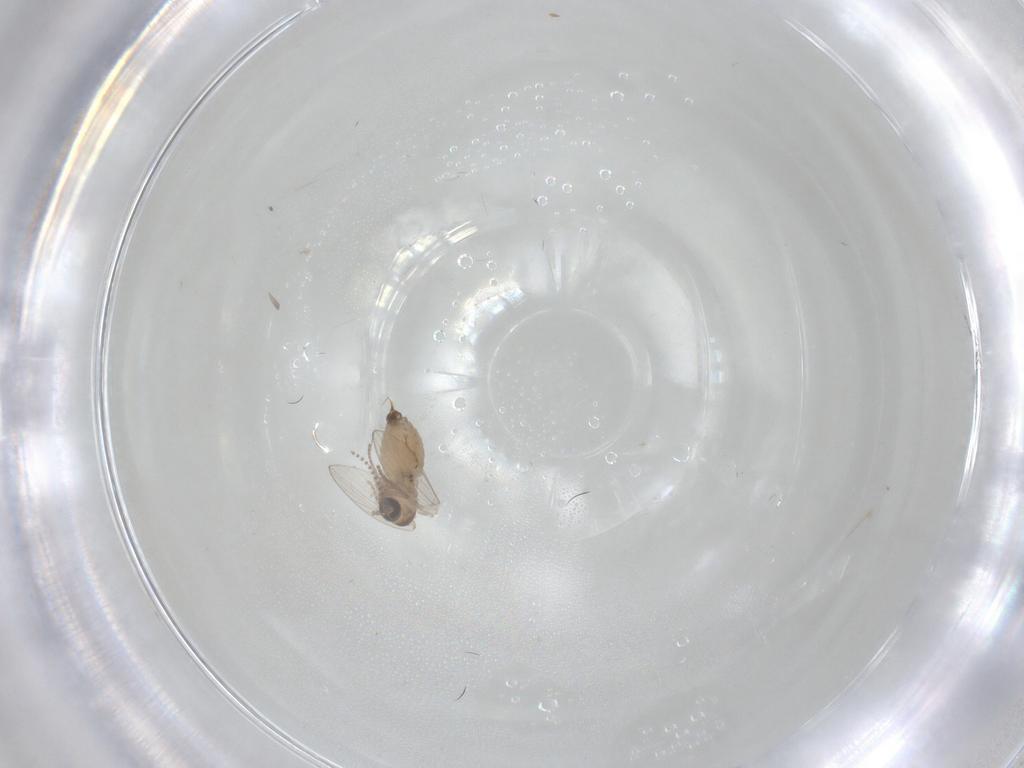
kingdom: Animalia
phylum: Arthropoda
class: Insecta
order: Diptera
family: Psychodidae
